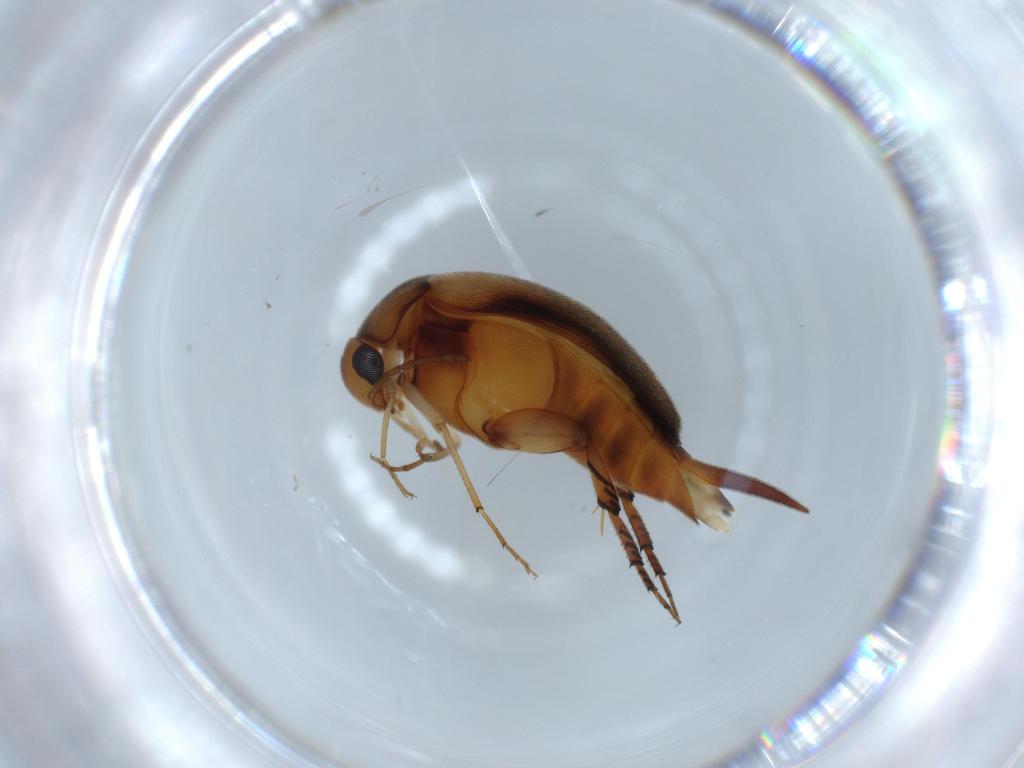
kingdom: Animalia
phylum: Arthropoda
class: Insecta
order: Coleoptera
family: Mordellidae
